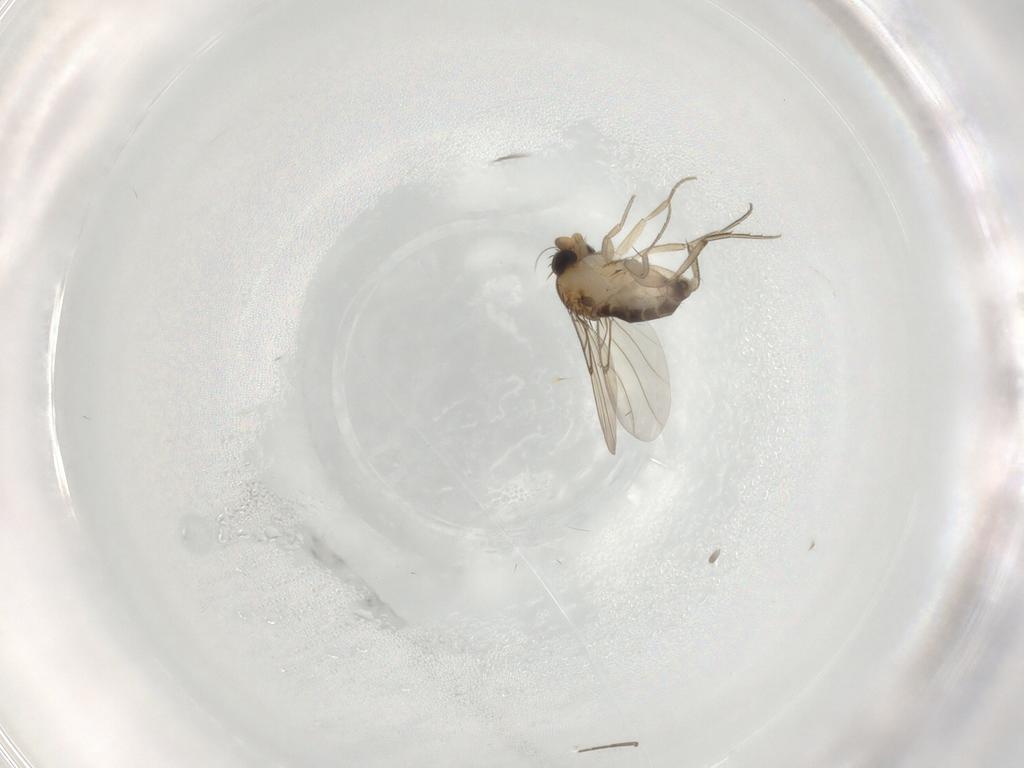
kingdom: Animalia
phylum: Arthropoda
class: Insecta
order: Diptera
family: Phoridae
